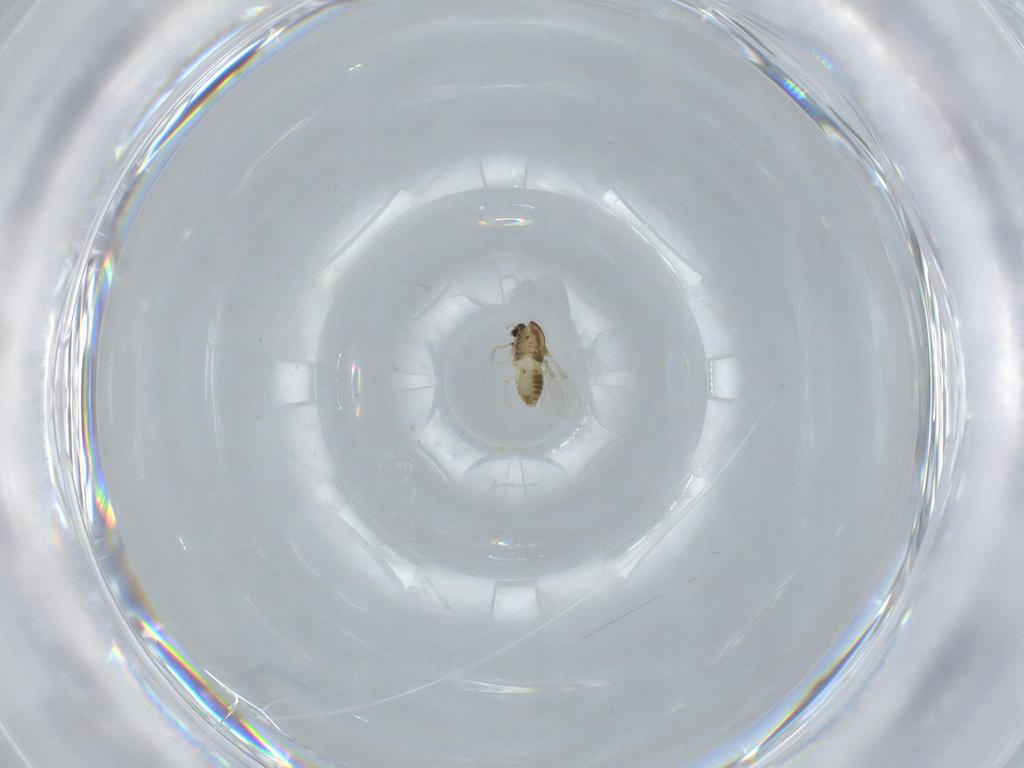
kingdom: Animalia
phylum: Arthropoda
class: Insecta
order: Diptera
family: Chironomidae
